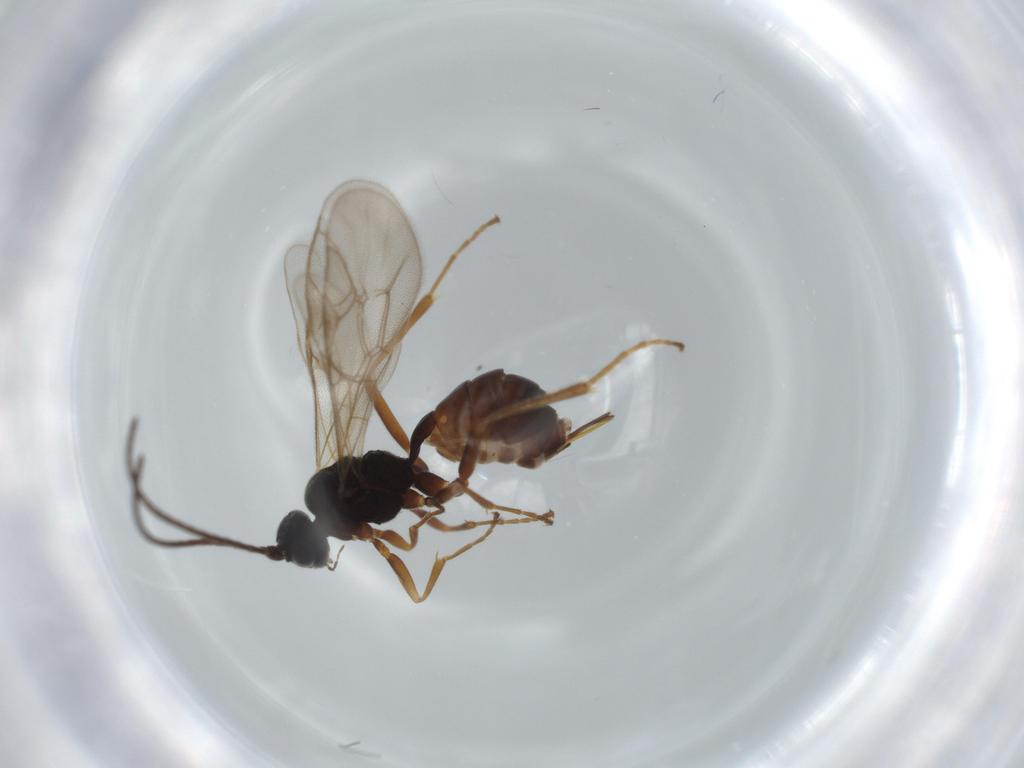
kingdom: Animalia
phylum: Arthropoda
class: Insecta
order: Hymenoptera
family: Ichneumonidae
